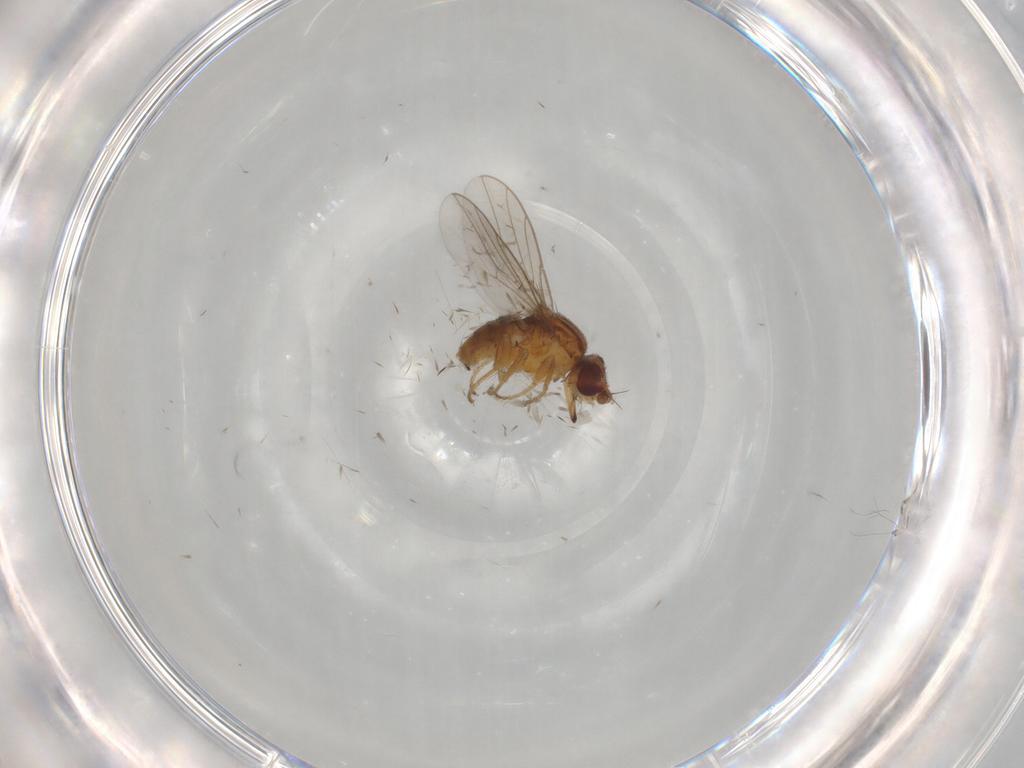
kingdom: Animalia
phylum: Arthropoda
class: Insecta
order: Diptera
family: Chloropidae
